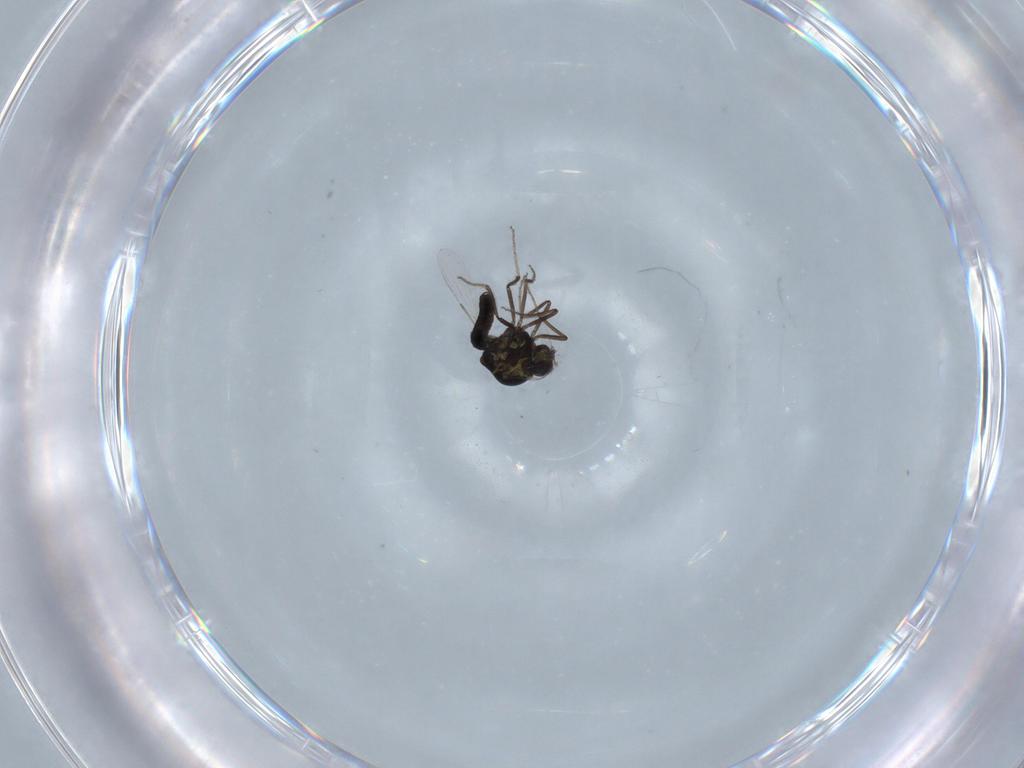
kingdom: Animalia
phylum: Arthropoda
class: Insecta
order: Diptera
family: Ceratopogonidae
